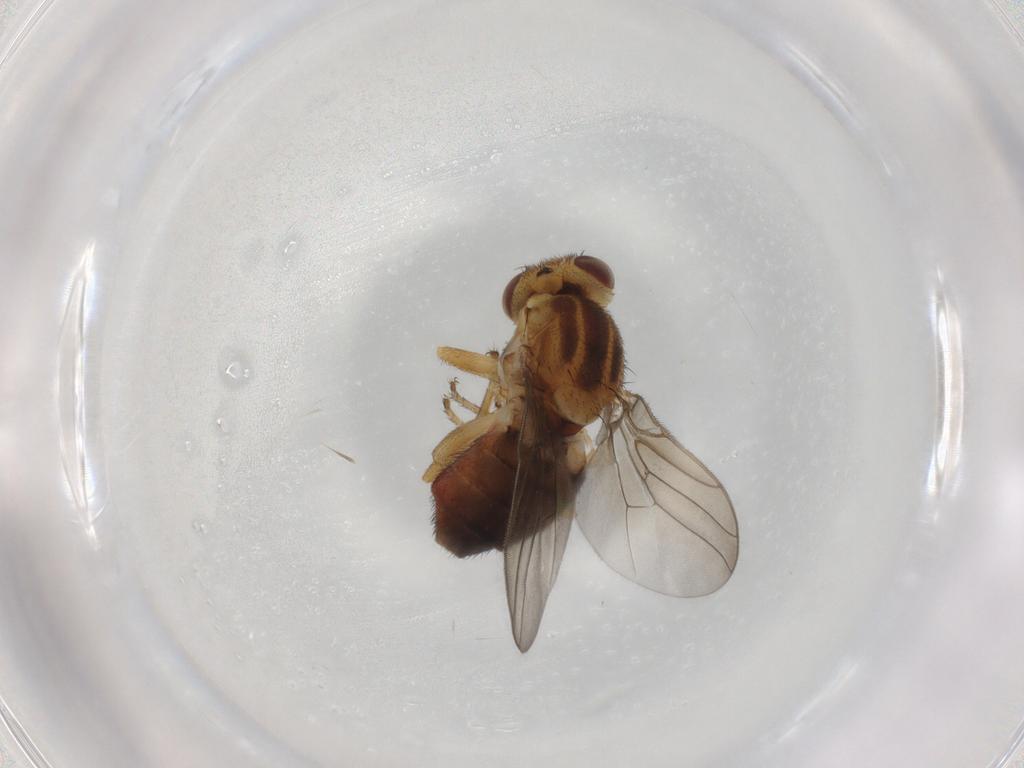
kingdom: Animalia
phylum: Arthropoda
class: Insecta
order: Diptera
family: Chloropidae
